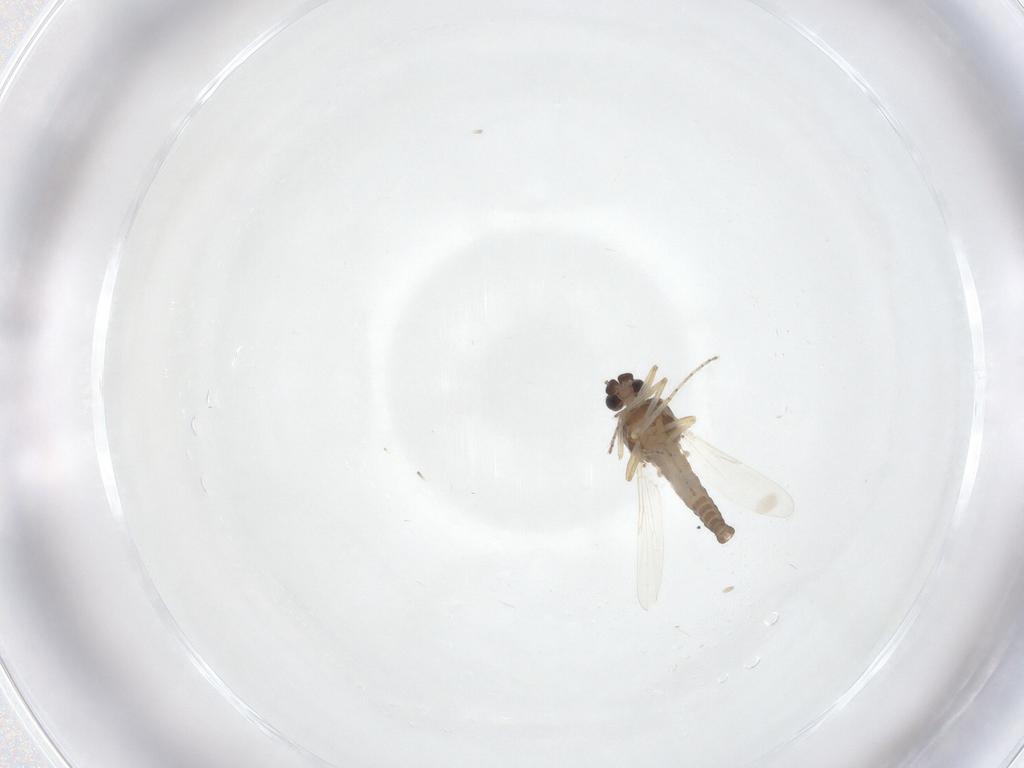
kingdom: Animalia
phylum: Arthropoda
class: Insecta
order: Diptera
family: Ceratopogonidae
